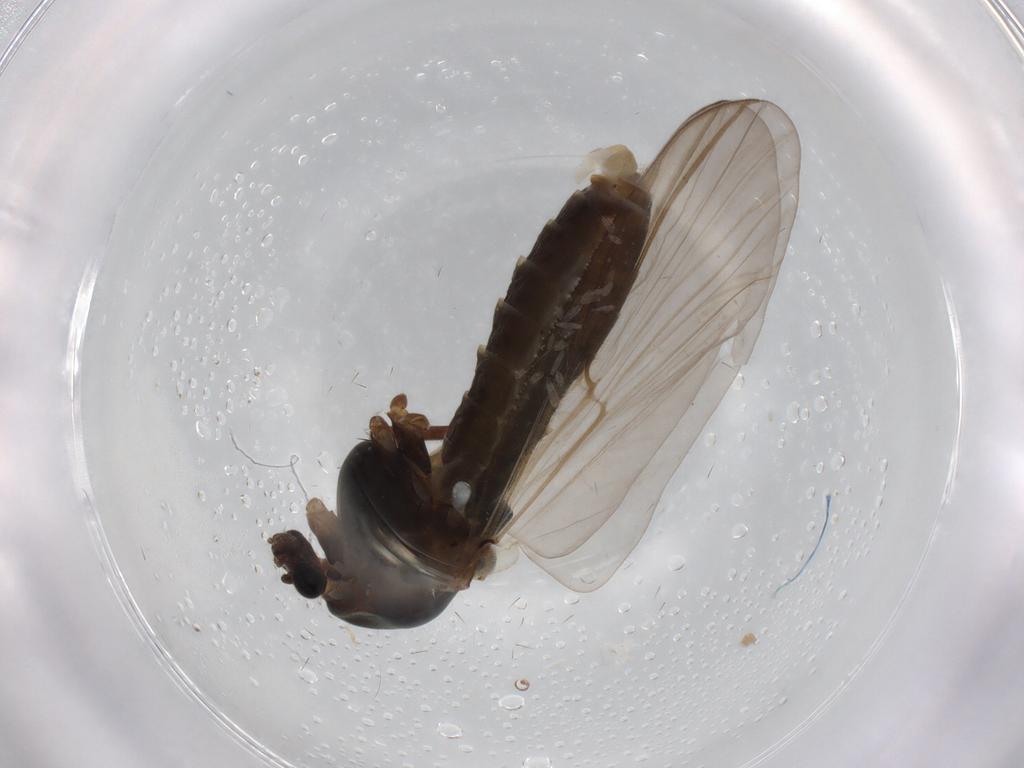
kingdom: Animalia
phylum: Arthropoda
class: Insecta
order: Diptera
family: Chironomidae
